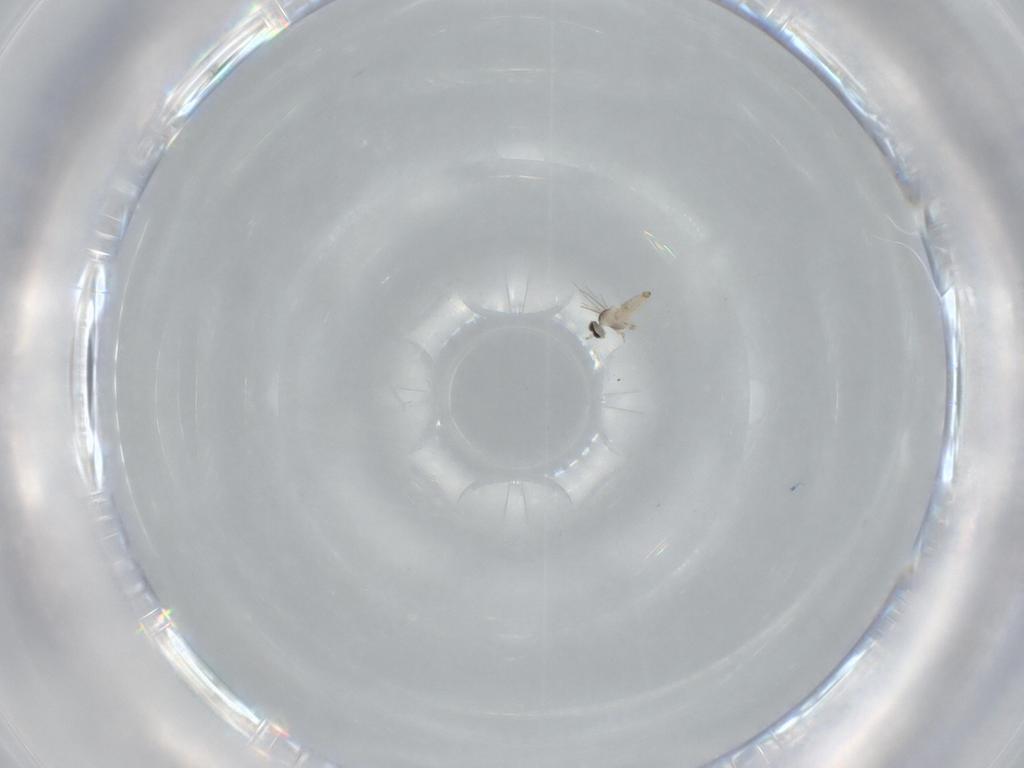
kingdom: Animalia
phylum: Arthropoda
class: Insecta
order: Diptera
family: Cecidomyiidae
